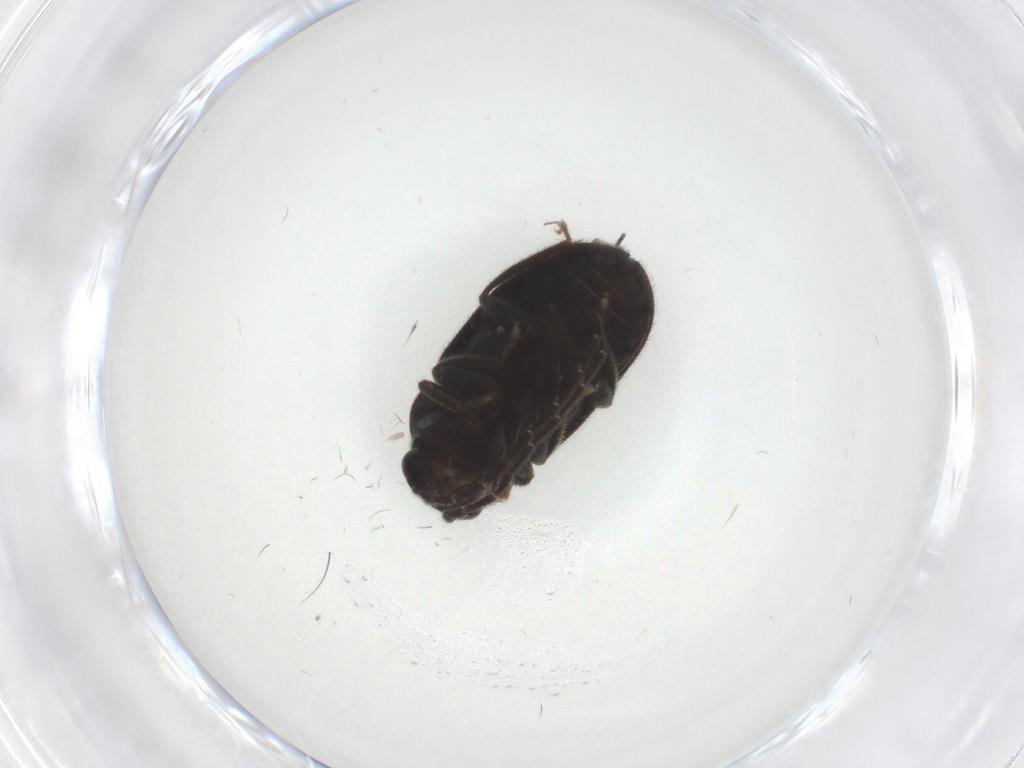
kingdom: Animalia
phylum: Arthropoda
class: Insecta
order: Coleoptera
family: Ptilodactylidae
